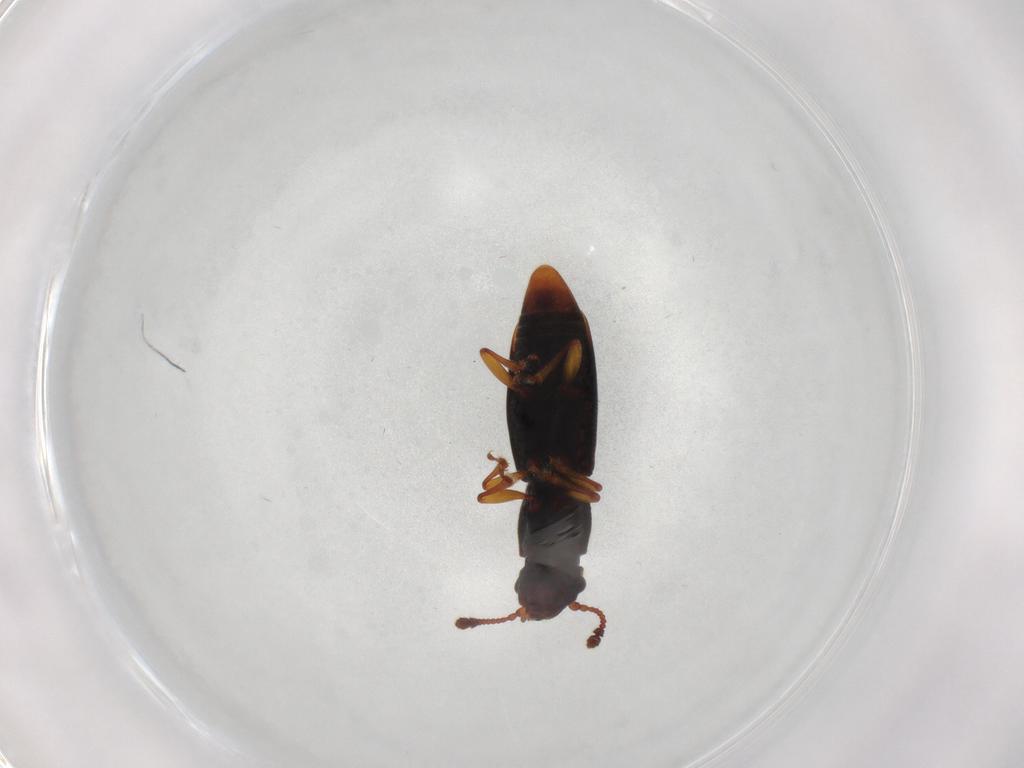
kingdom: Animalia
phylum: Arthropoda
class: Insecta
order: Coleoptera
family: Monotomidae
